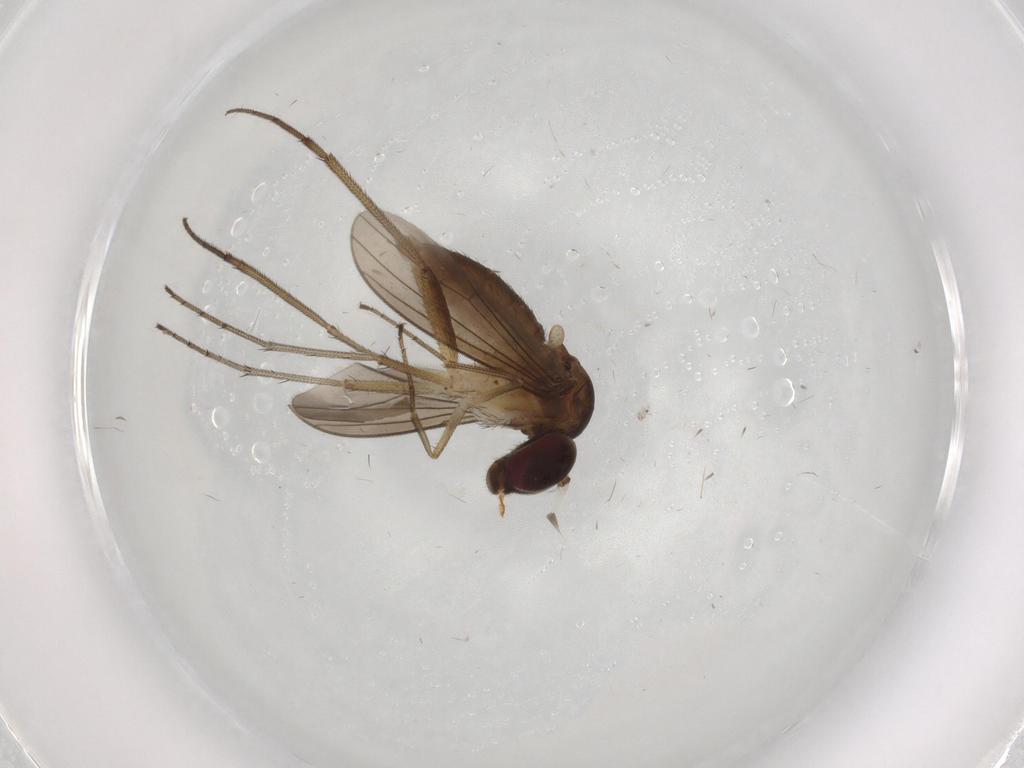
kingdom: Animalia
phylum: Arthropoda
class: Insecta
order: Diptera
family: Dolichopodidae
